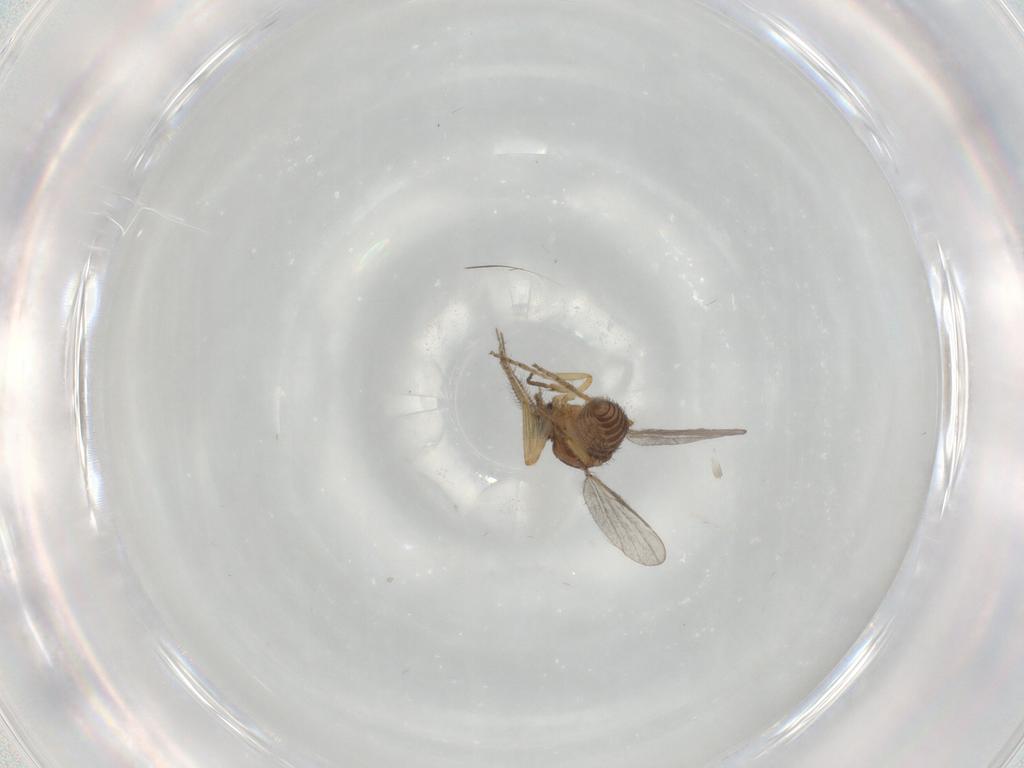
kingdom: Animalia
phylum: Arthropoda
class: Insecta
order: Diptera
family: Ceratopogonidae
